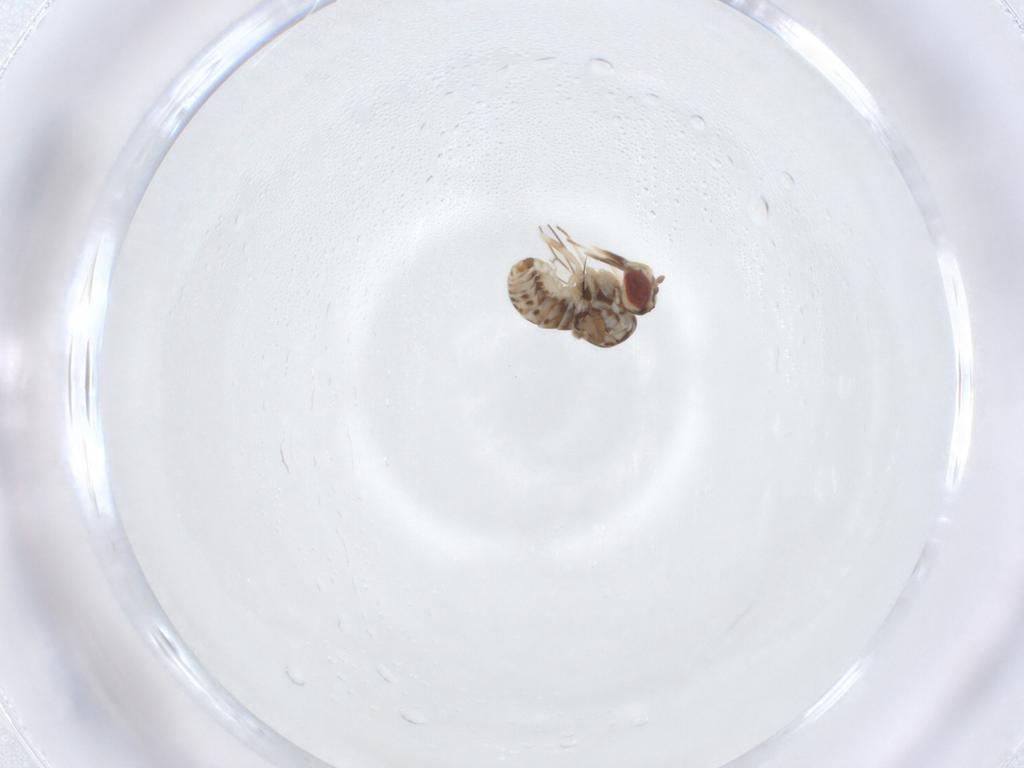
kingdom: Animalia
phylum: Arthropoda
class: Insecta
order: Diptera
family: Bombyliidae
